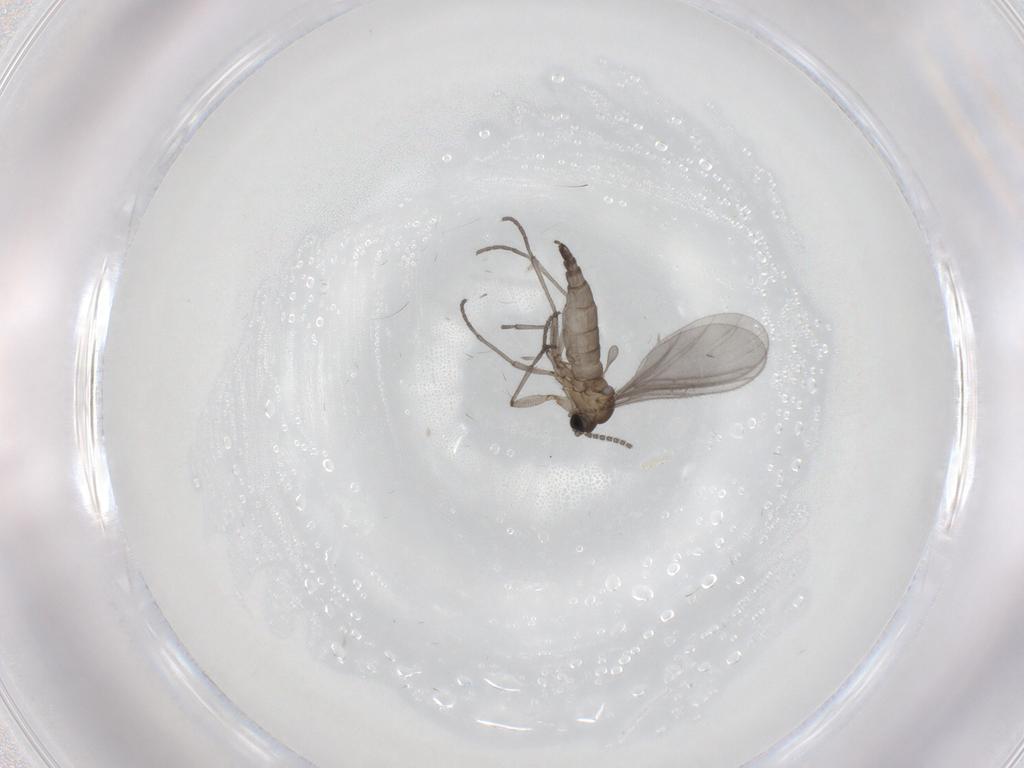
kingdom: Animalia
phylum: Arthropoda
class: Insecta
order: Diptera
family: Sciaridae
